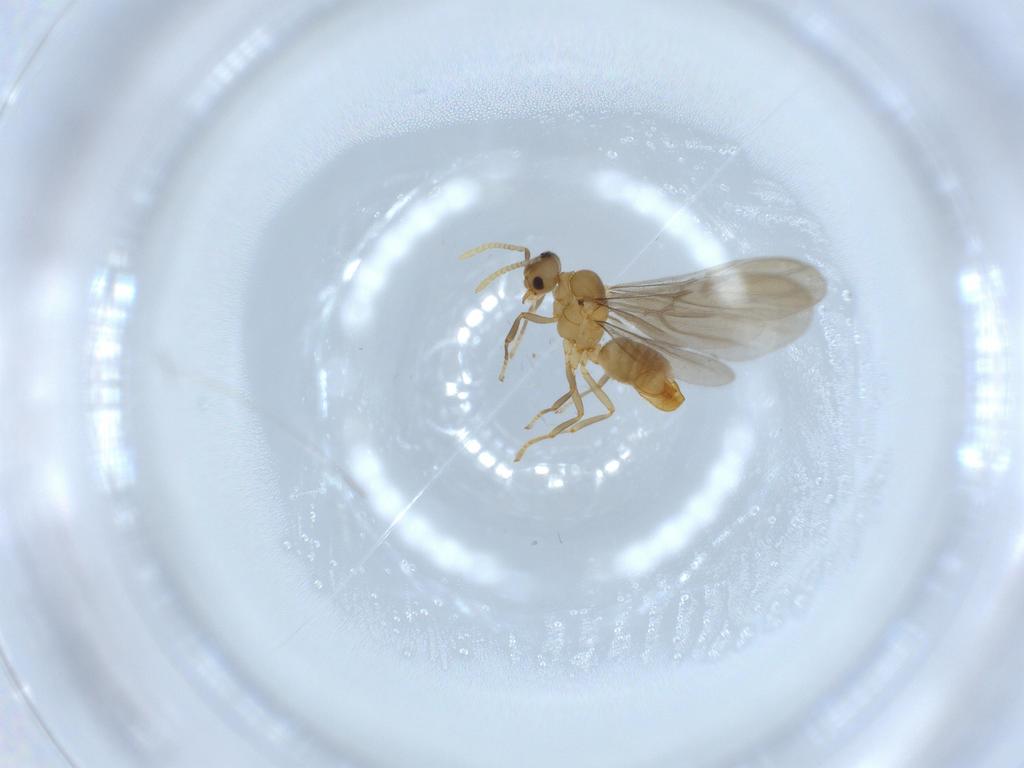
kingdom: Animalia
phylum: Arthropoda
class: Insecta
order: Hymenoptera
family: Formicidae
